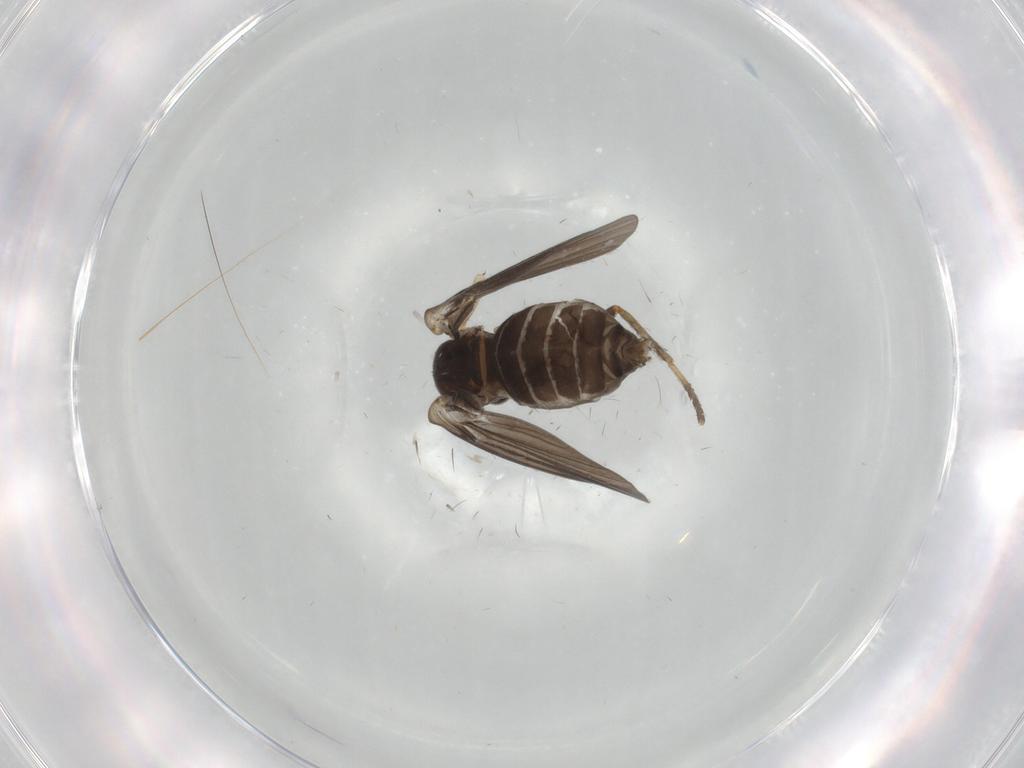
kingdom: Animalia
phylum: Arthropoda
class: Insecta
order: Diptera
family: Psychodidae
